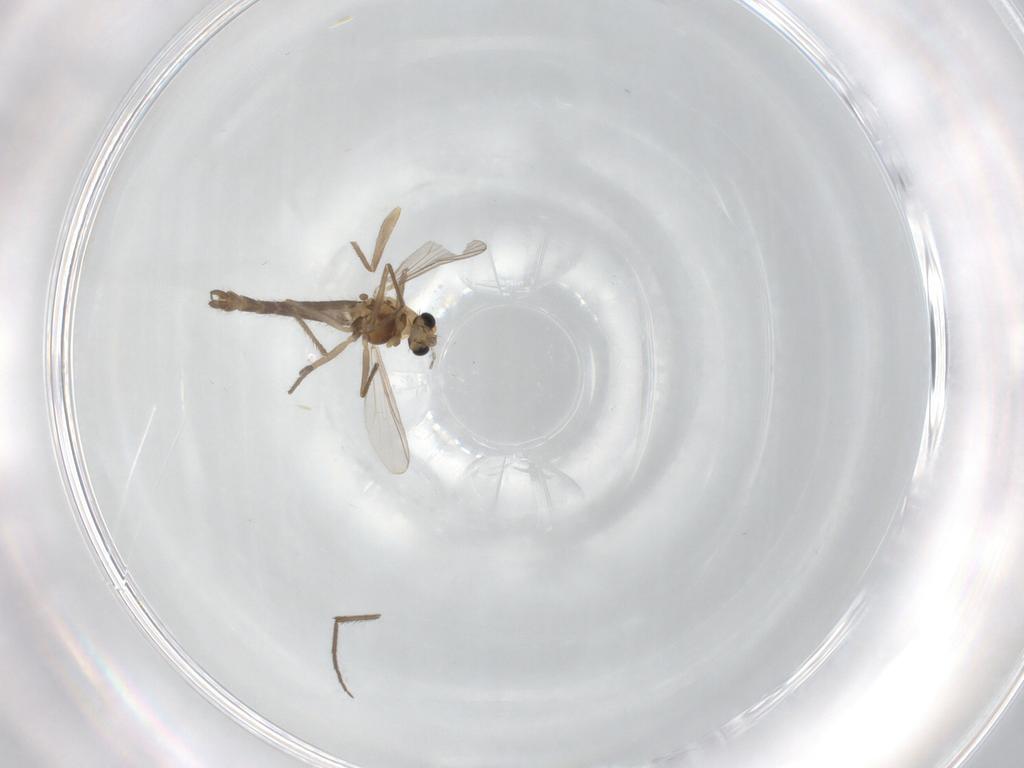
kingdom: Animalia
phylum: Arthropoda
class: Insecta
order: Diptera
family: Chironomidae
